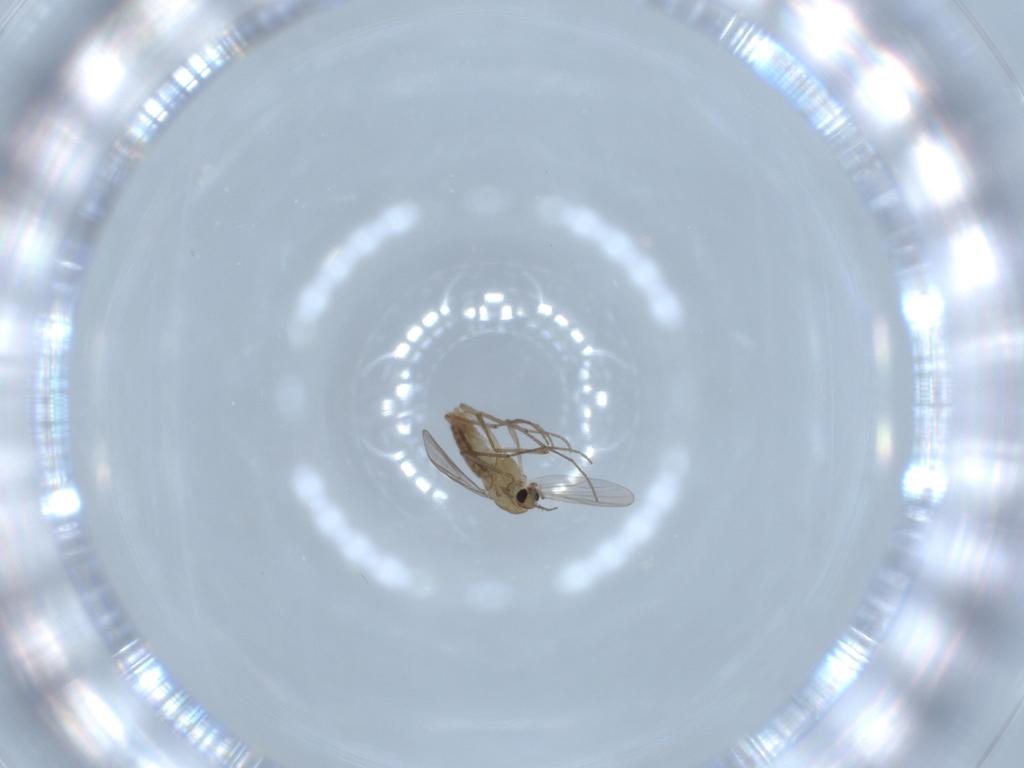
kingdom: Animalia
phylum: Arthropoda
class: Insecta
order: Diptera
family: Chironomidae
